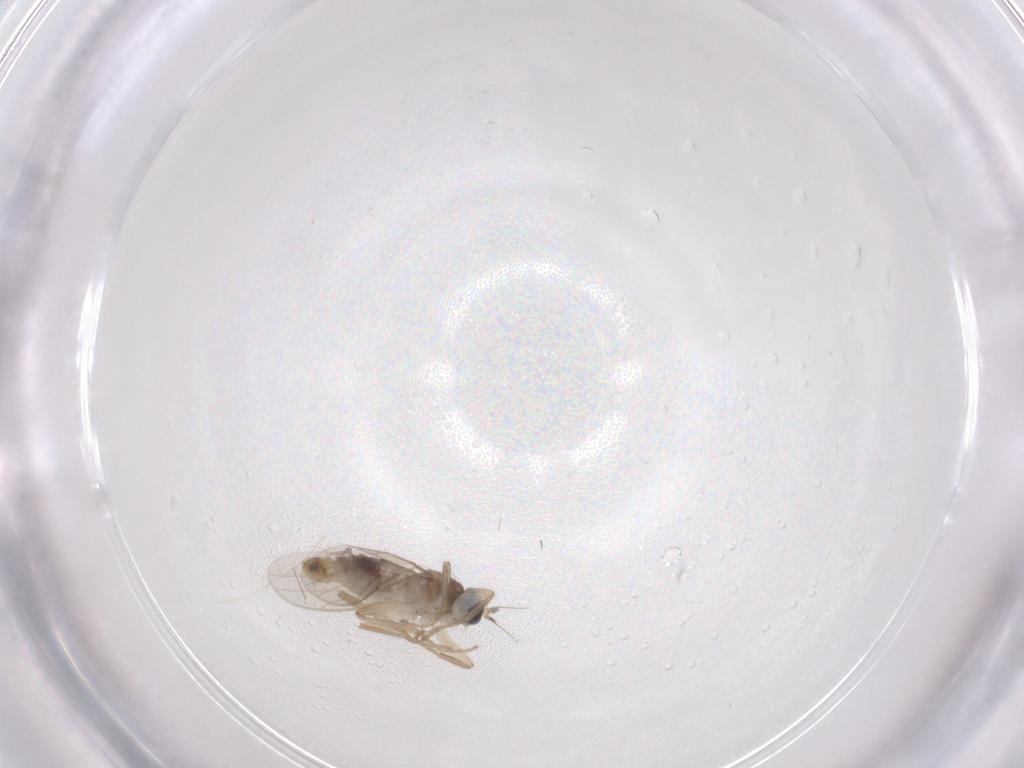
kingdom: Animalia
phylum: Arthropoda
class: Insecta
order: Diptera
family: Hybotidae
